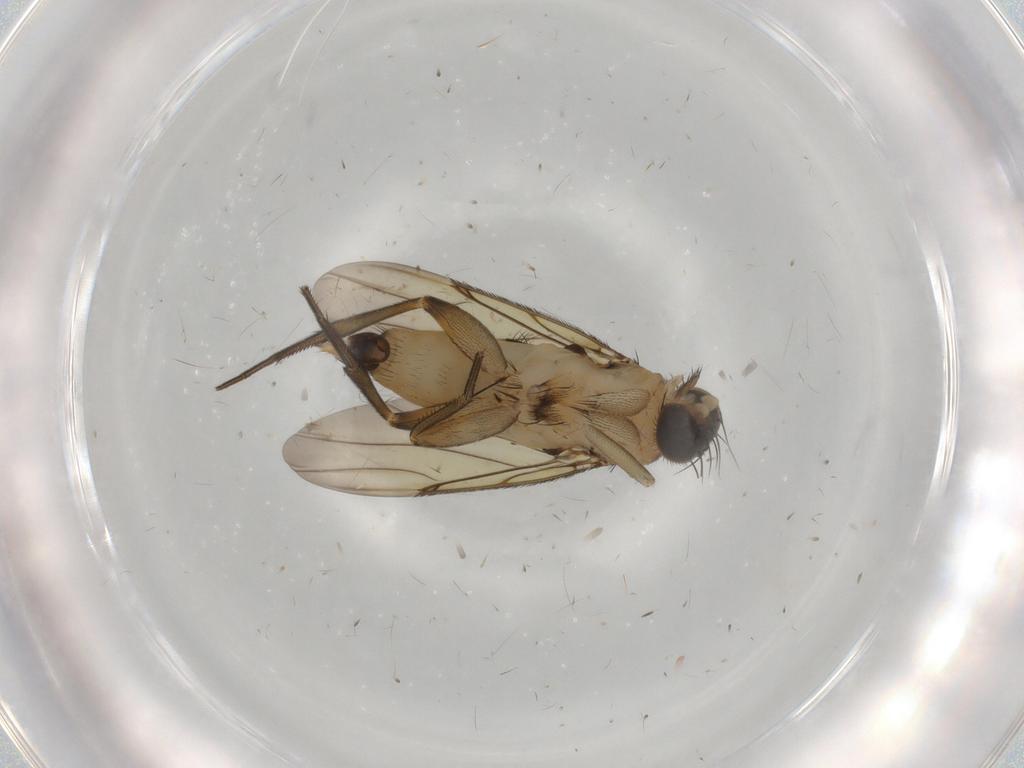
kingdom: Animalia
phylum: Arthropoda
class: Insecta
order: Diptera
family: Phoridae
